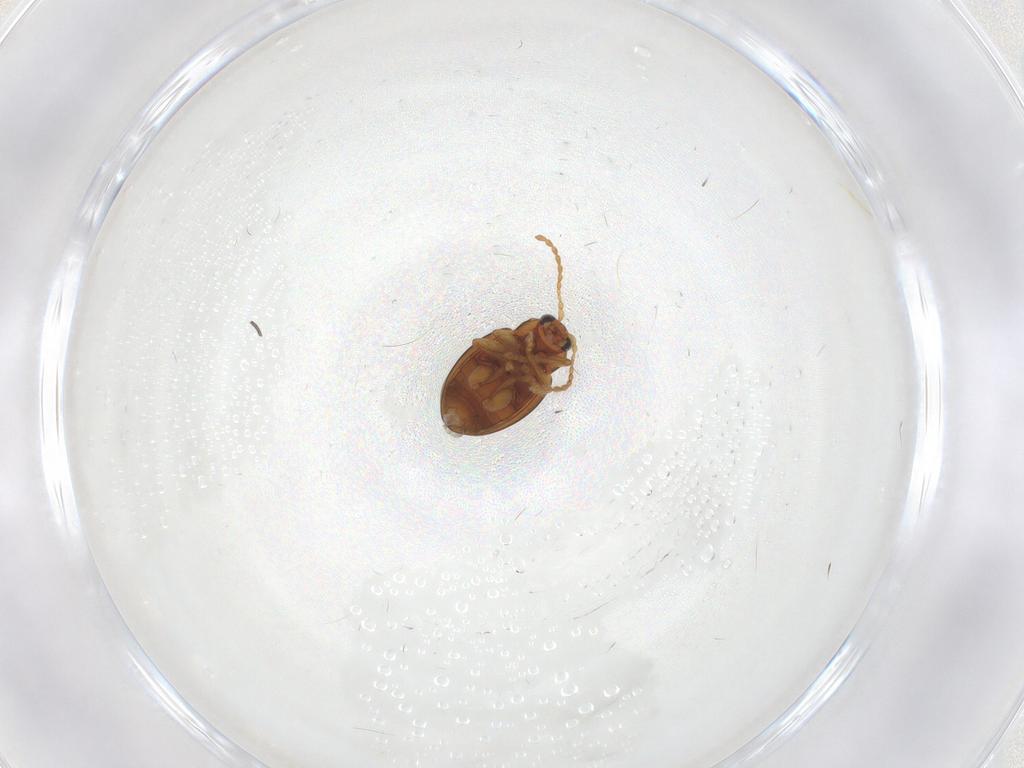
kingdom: Animalia
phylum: Arthropoda
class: Insecta
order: Coleoptera
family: Chrysomelidae
